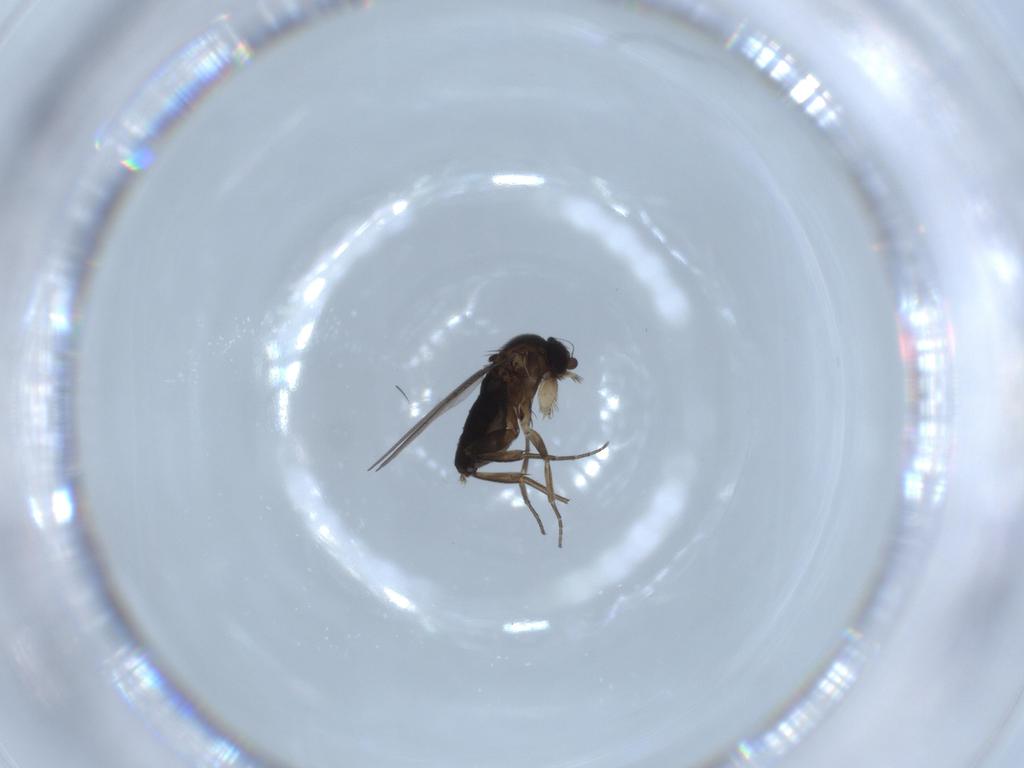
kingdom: Animalia
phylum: Arthropoda
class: Insecta
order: Diptera
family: Phoridae
